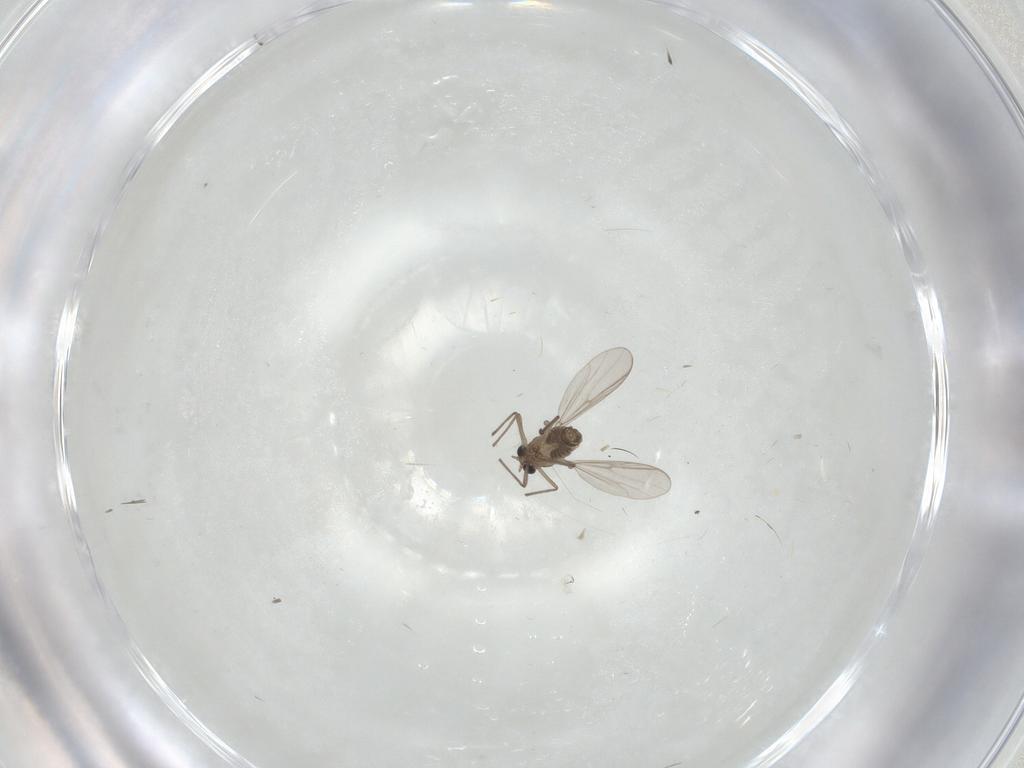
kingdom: Animalia
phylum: Arthropoda
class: Insecta
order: Diptera
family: Chironomidae
